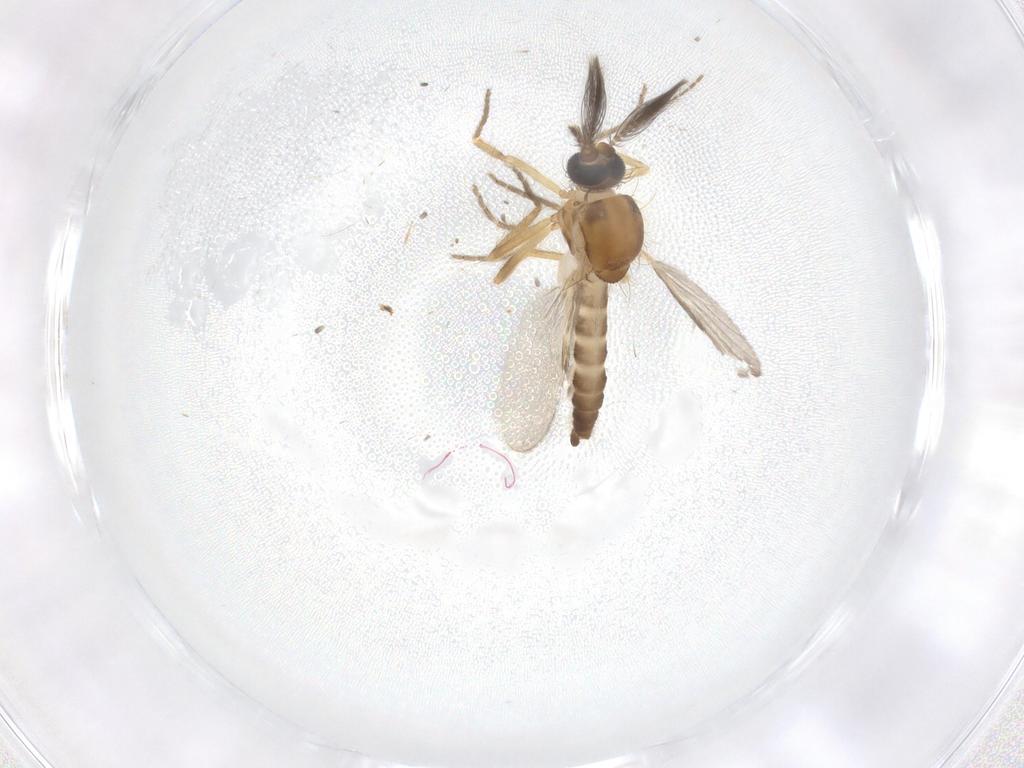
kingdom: Animalia
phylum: Arthropoda
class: Insecta
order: Diptera
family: Ceratopogonidae
